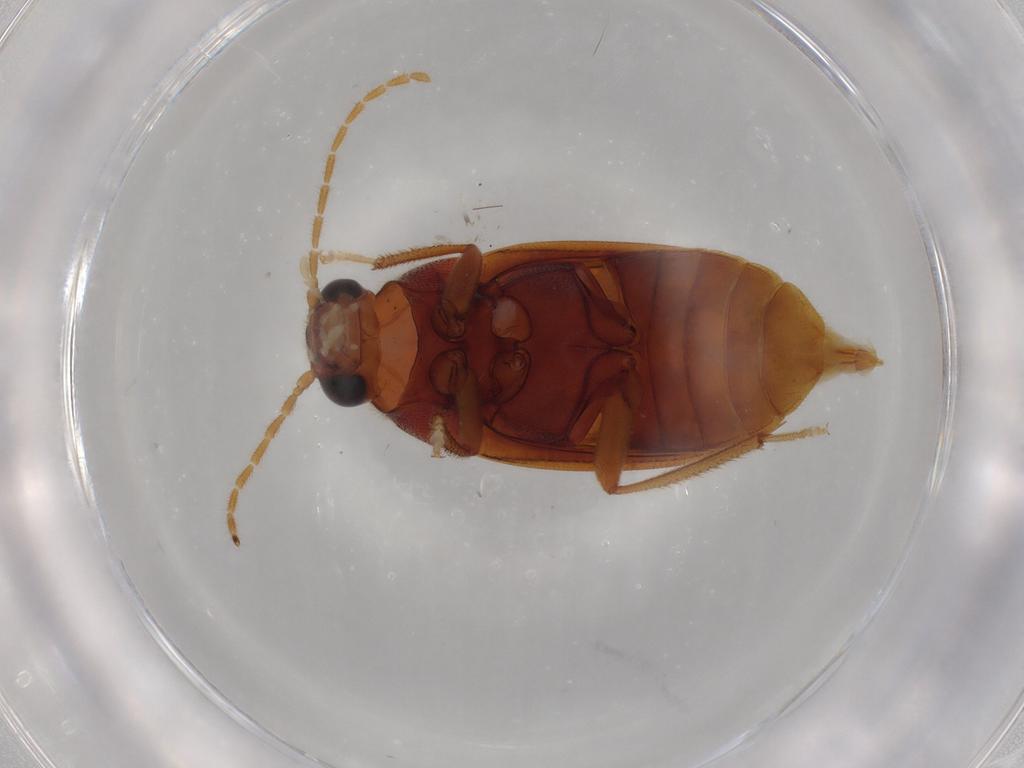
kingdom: Animalia
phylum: Arthropoda
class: Insecta
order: Coleoptera
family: Ptilodactylidae
